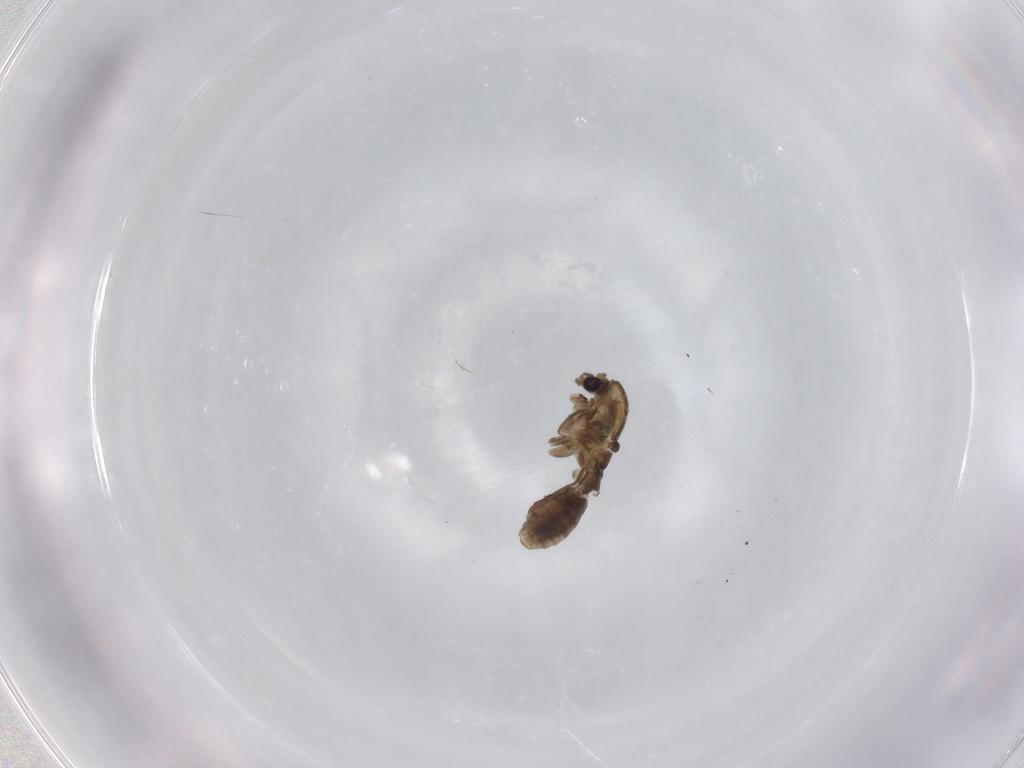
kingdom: Animalia
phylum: Arthropoda
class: Insecta
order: Diptera
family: Chironomidae
